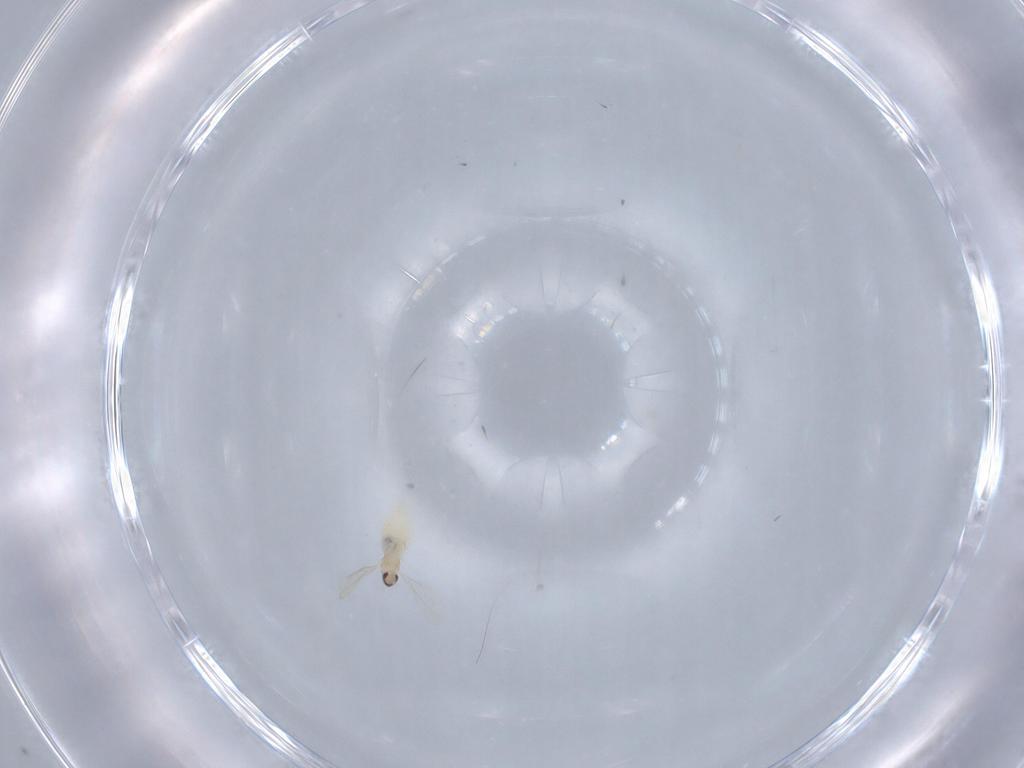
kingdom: Animalia
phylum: Arthropoda
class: Insecta
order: Diptera
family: Cecidomyiidae
